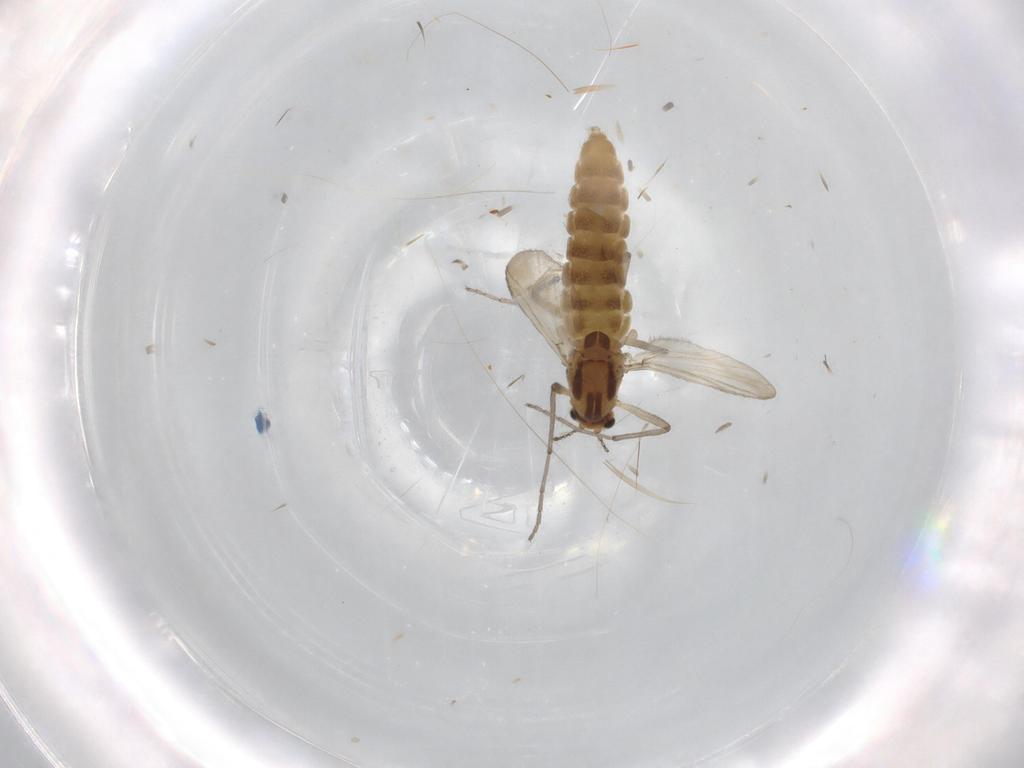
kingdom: Animalia
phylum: Arthropoda
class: Insecta
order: Diptera
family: Chironomidae
